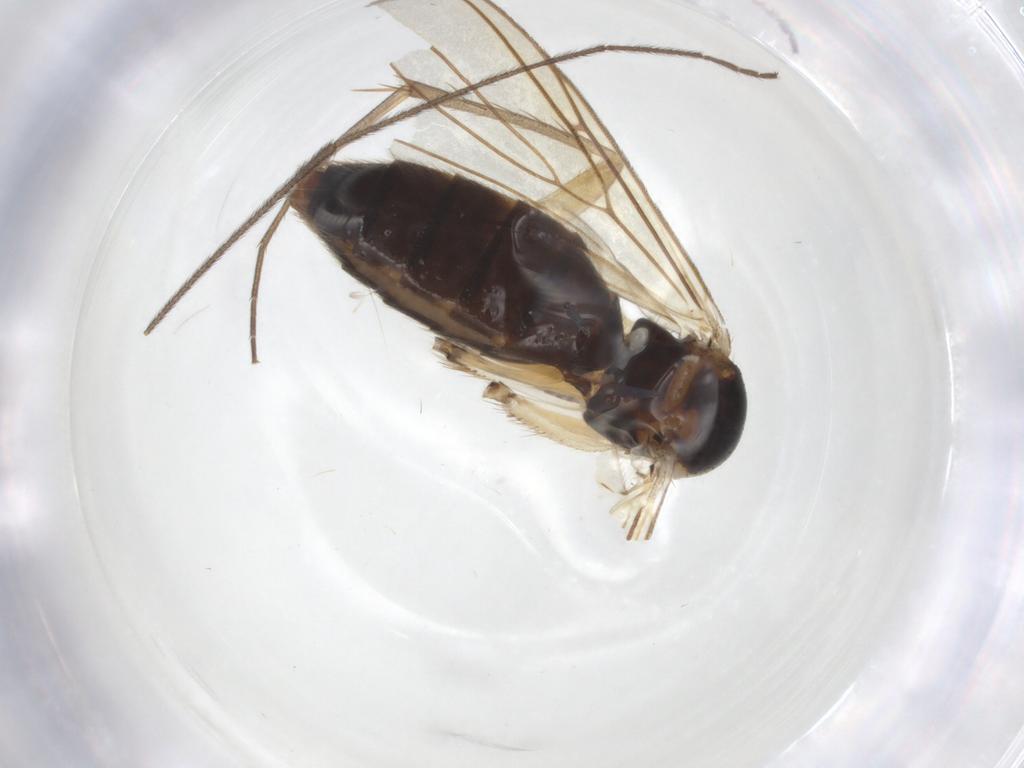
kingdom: Animalia
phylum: Arthropoda
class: Insecta
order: Diptera
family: Mycetophilidae
